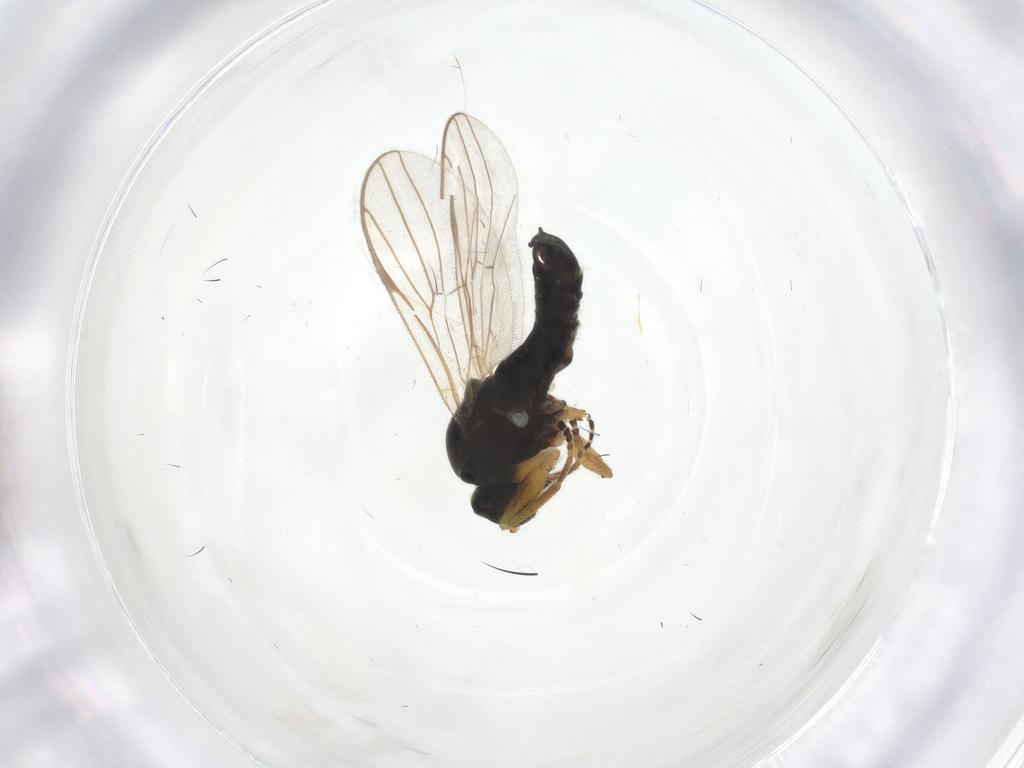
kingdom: Animalia
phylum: Arthropoda
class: Insecta
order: Diptera
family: Hybotidae
